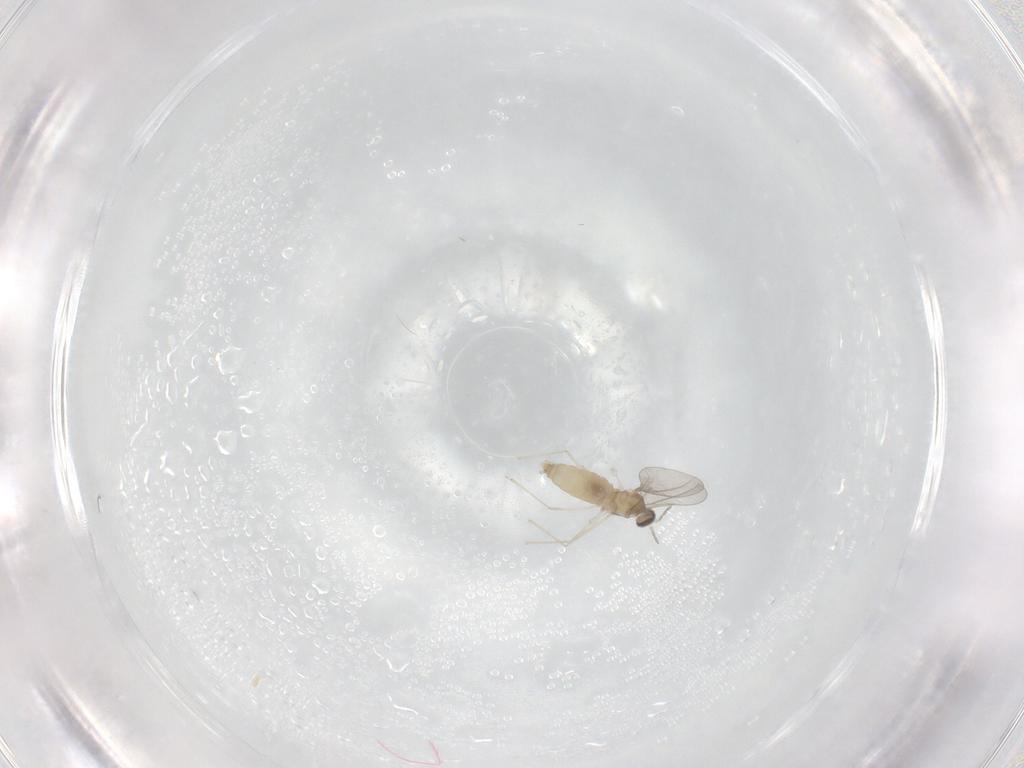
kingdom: Animalia
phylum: Arthropoda
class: Insecta
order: Diptera
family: Cecidomyiidae
